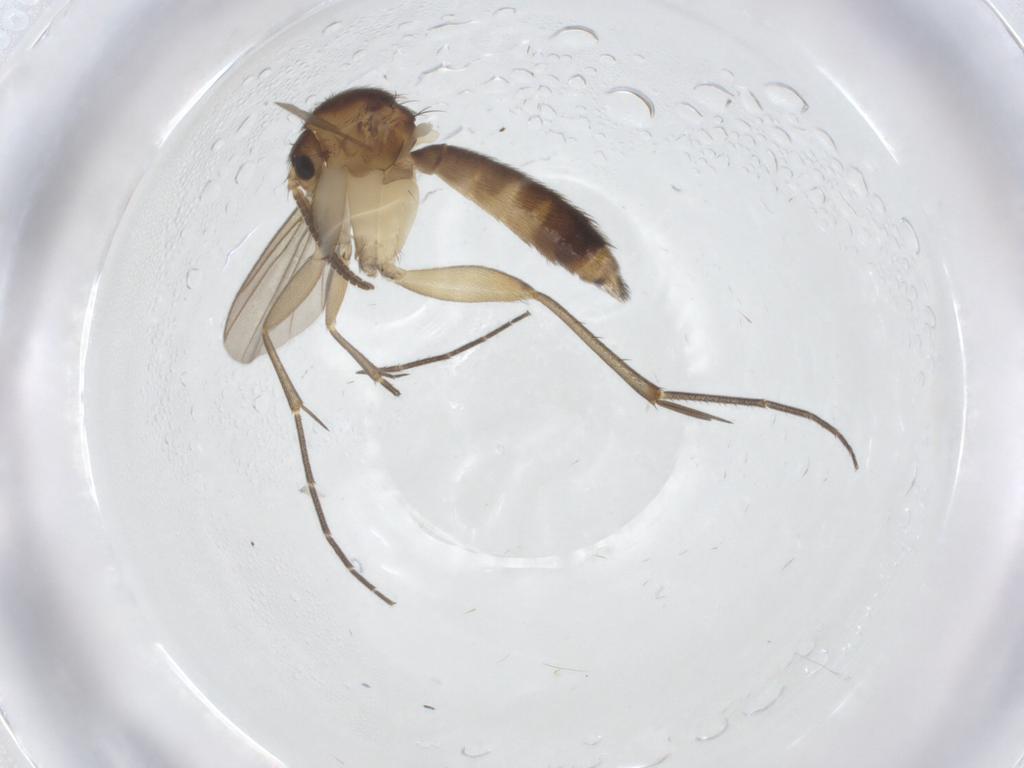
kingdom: Animalia
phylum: Arthropoda
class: Insecta
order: Diptera
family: Mycetophilidae
